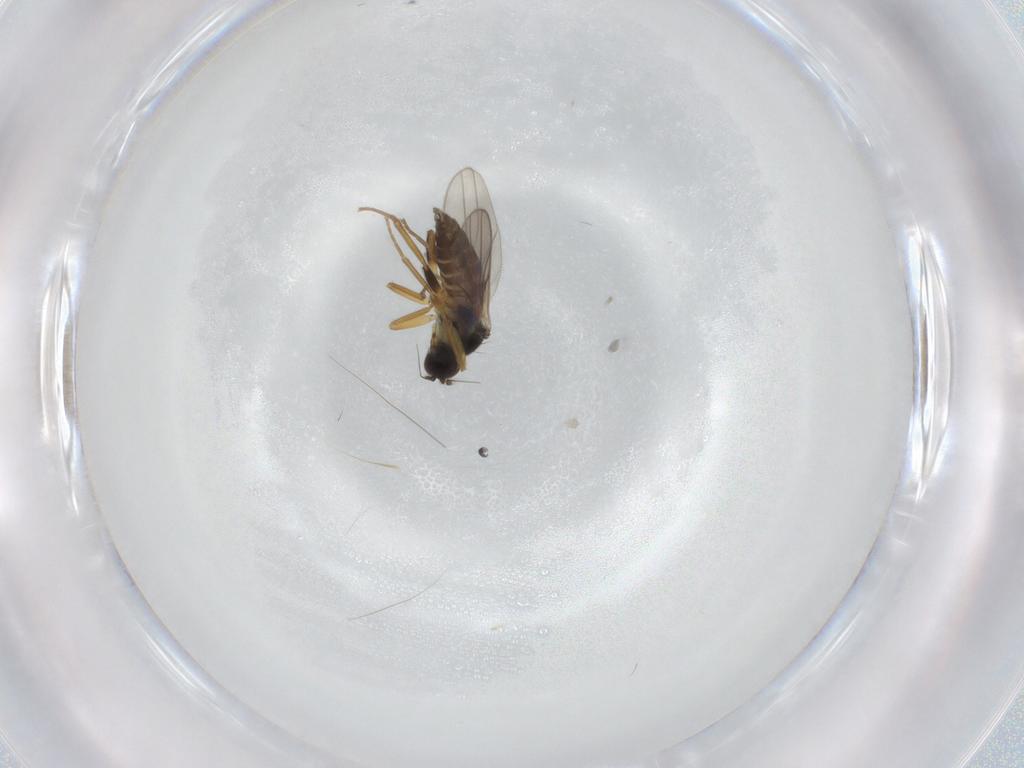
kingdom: Animalia
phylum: Arthropoda
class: Insecta
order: Diptera
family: Hybotidae
